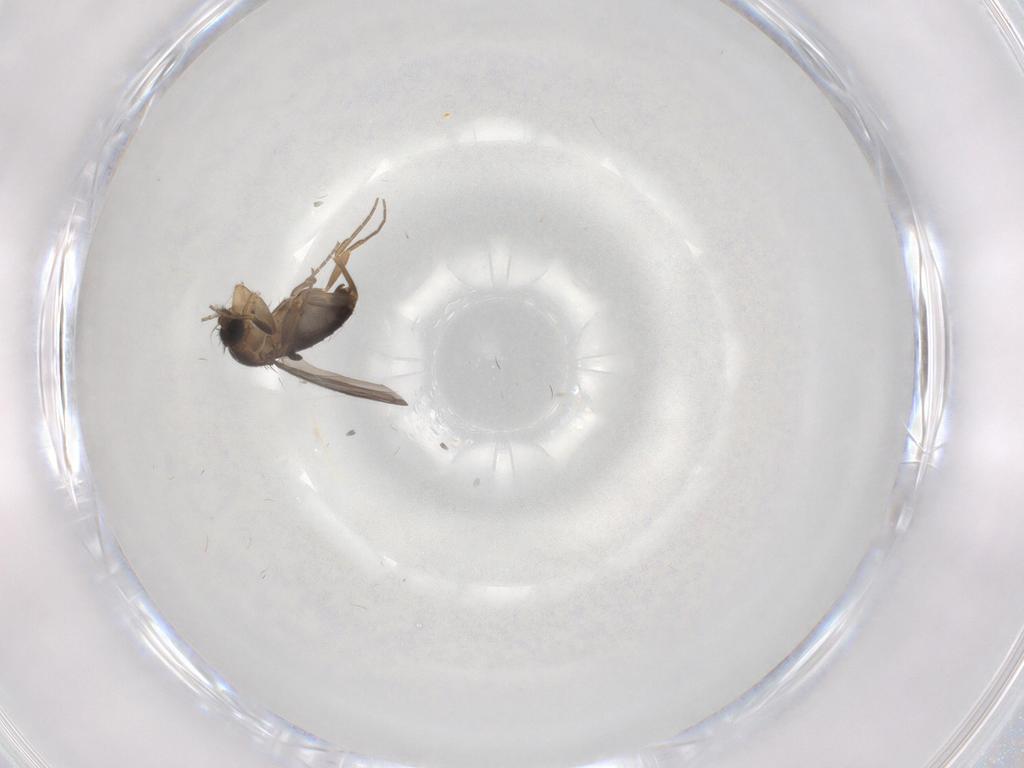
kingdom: Animalia
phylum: Arthropoda
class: Insecta
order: Diptera
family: Phoridae
